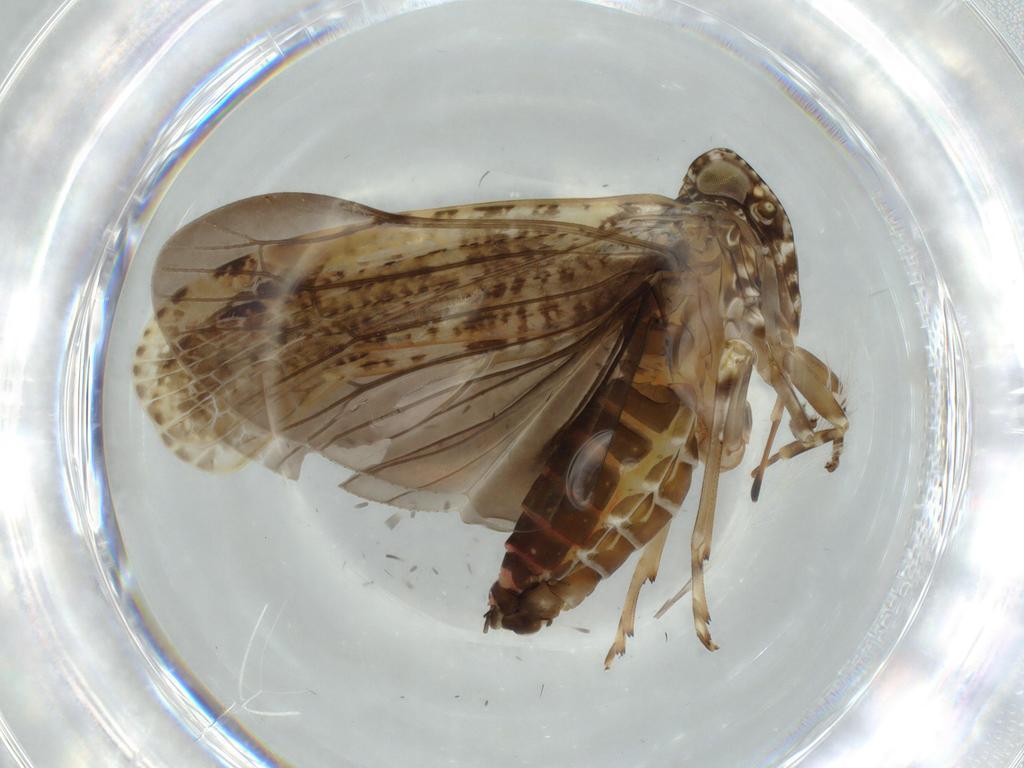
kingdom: Animalia
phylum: Arthropoda
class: Insecta
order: Hemiptera
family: Achilidae
